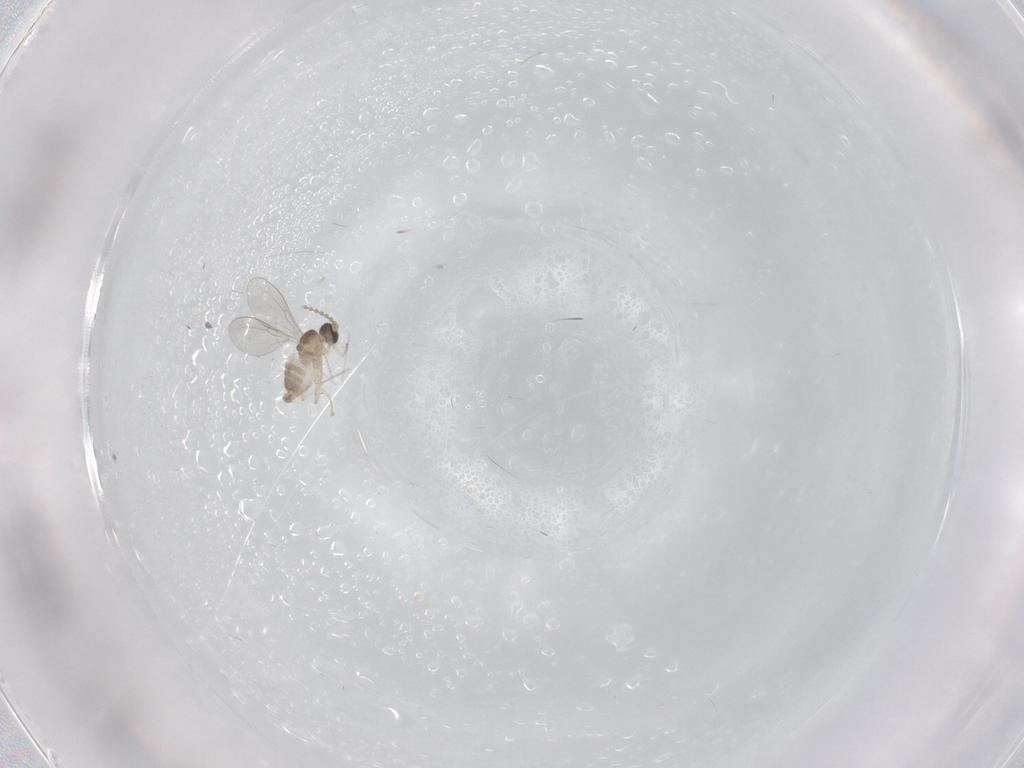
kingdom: Animalia
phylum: Arthropoda
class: Insecta
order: Diptera
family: Cecidomyiidae
